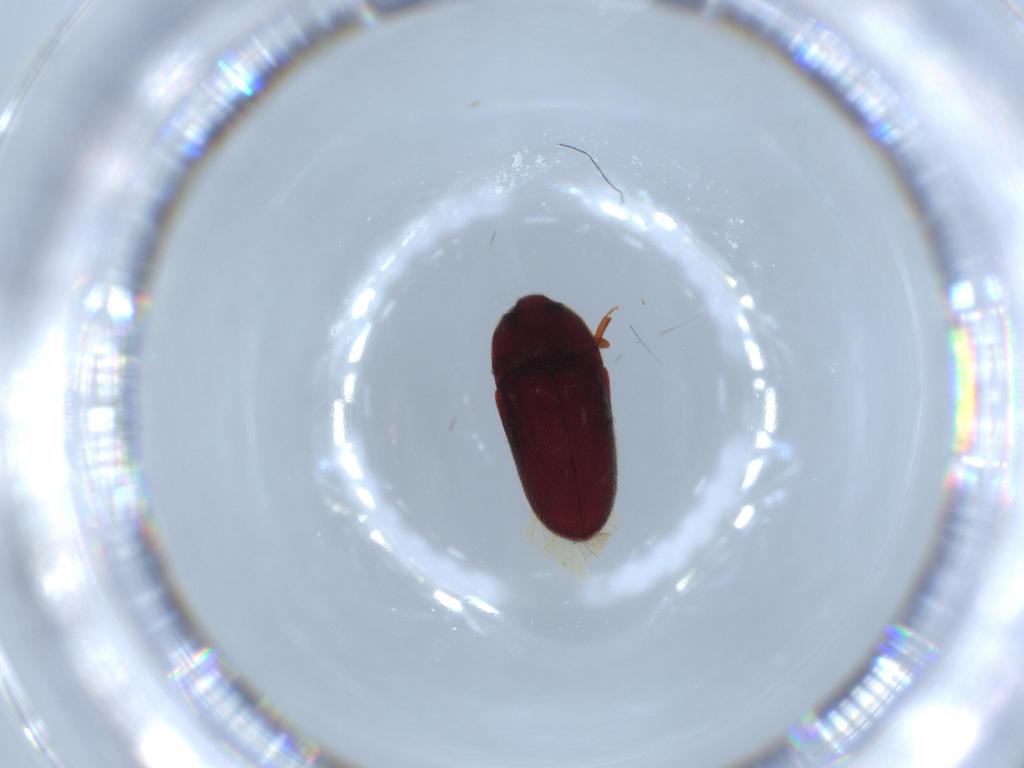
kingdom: Animalia
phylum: Arthropoda
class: Insecta
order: Coleoptera
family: Throscidae
